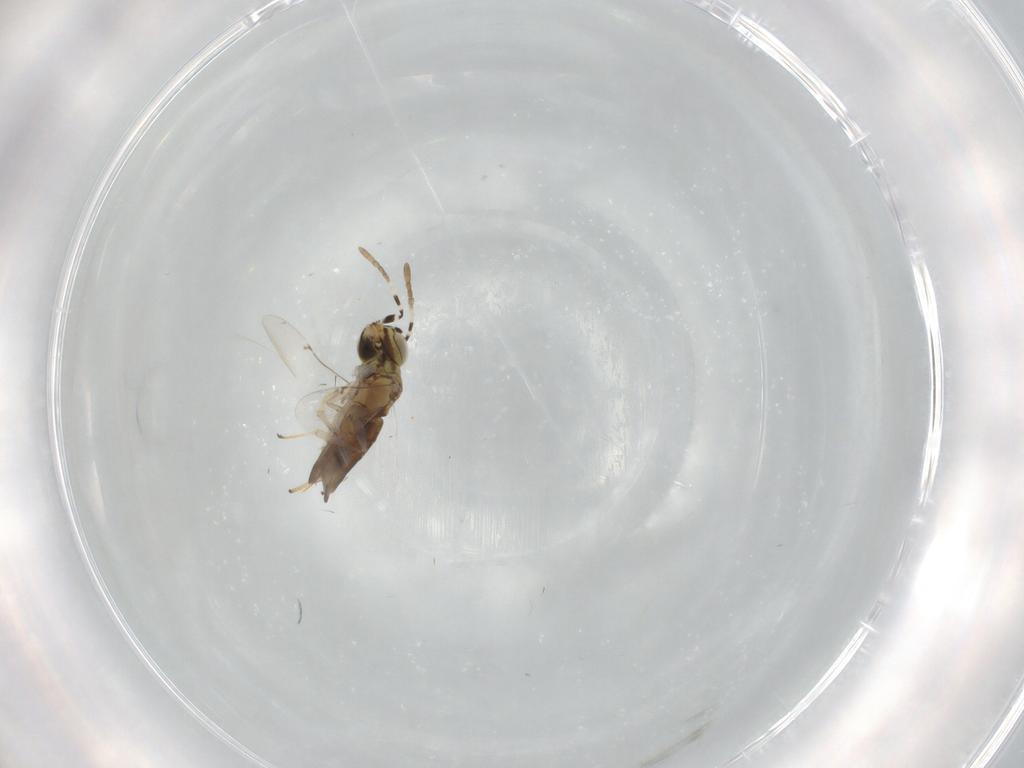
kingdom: Animalia
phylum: Arthropoda
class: Insecta
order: Hymenoptera
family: Encyrtidae
